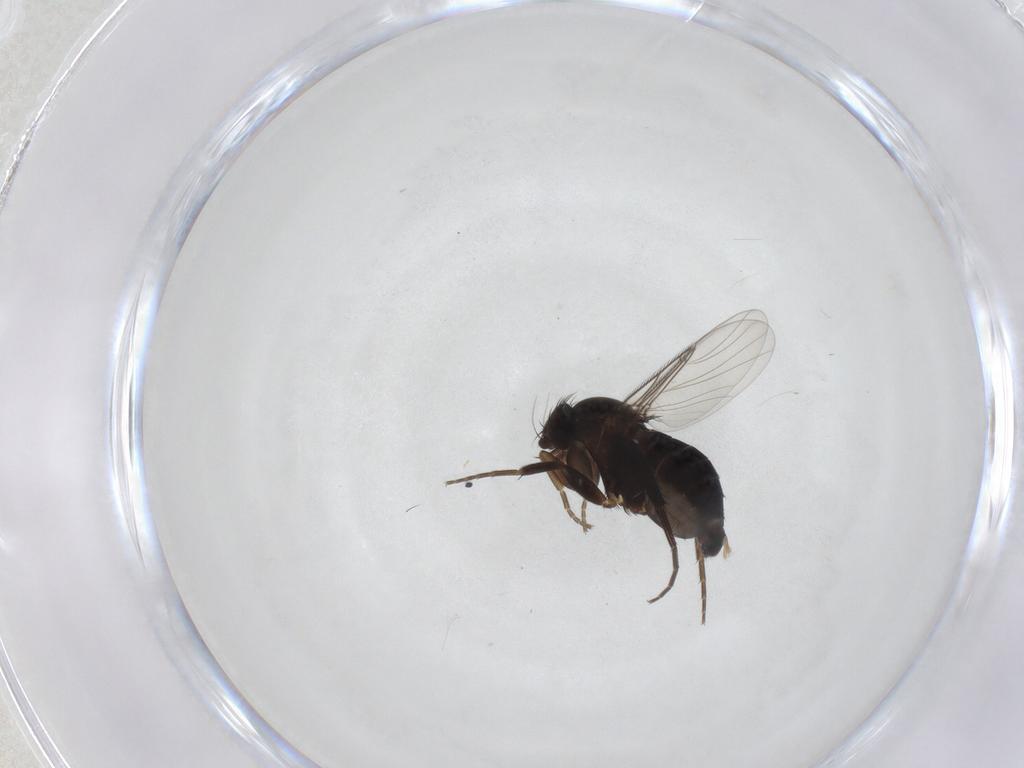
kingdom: Animalia
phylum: Arthropoda
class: Insecta
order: Diptera
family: Phoridae
